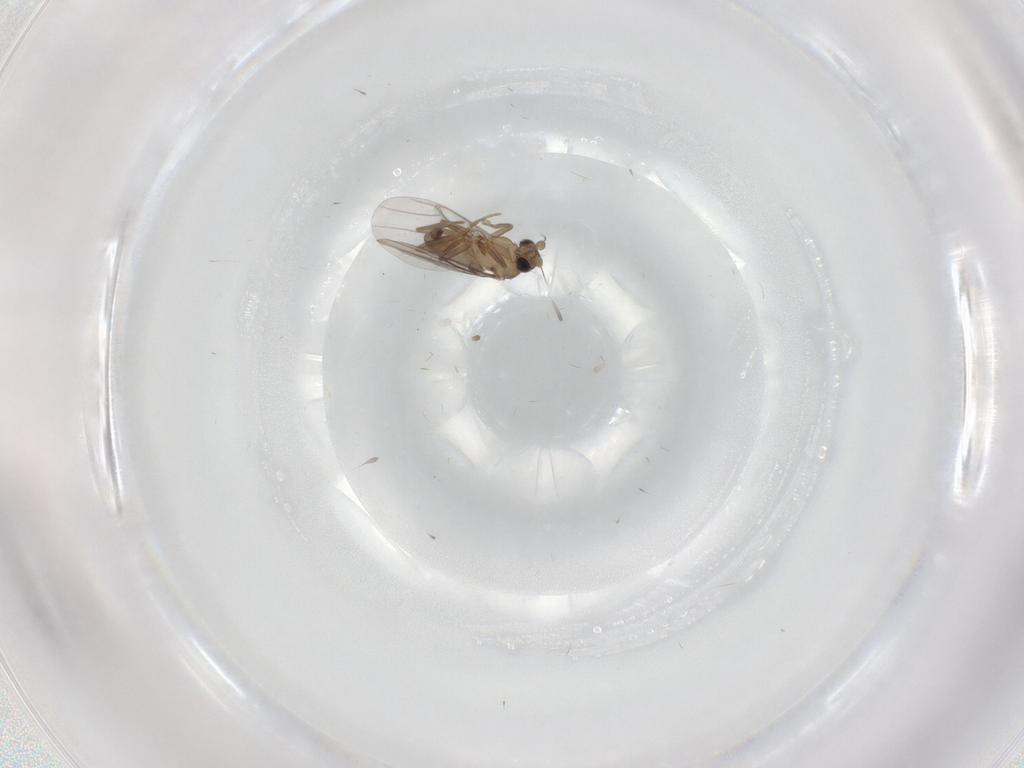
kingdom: Animalia
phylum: Arthropoda
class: Insecta
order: Diptera
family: Chironomidae
